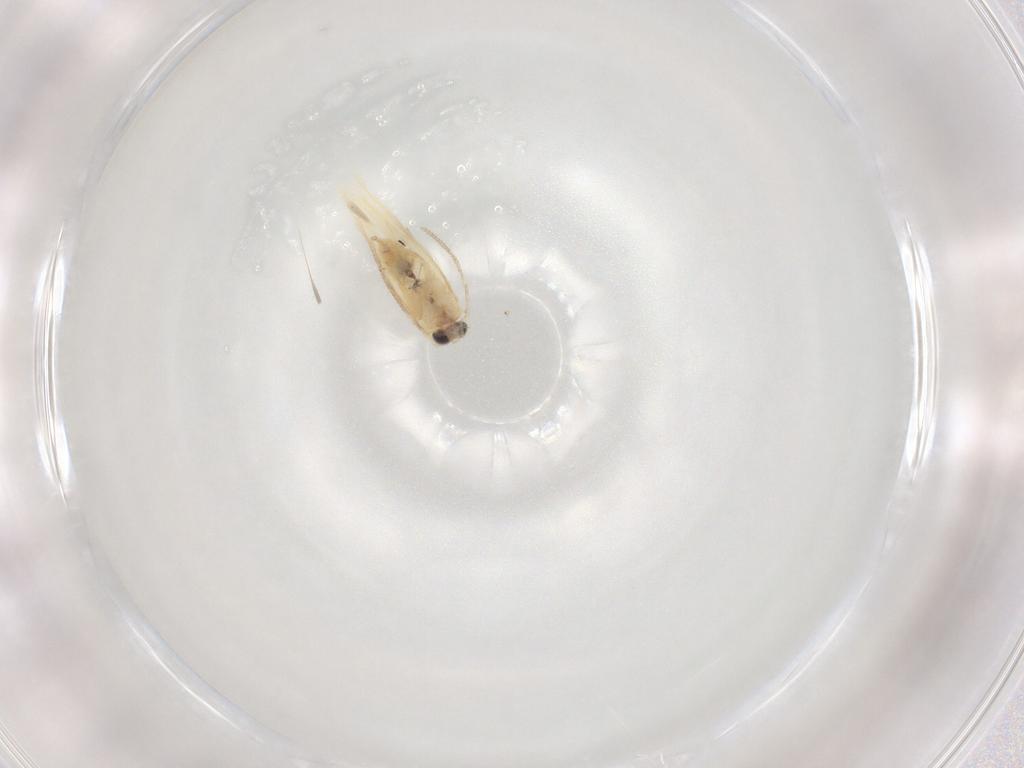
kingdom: Animalia
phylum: Arthropoda
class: Insecta
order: Lepidoptera
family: Nepticulidae
